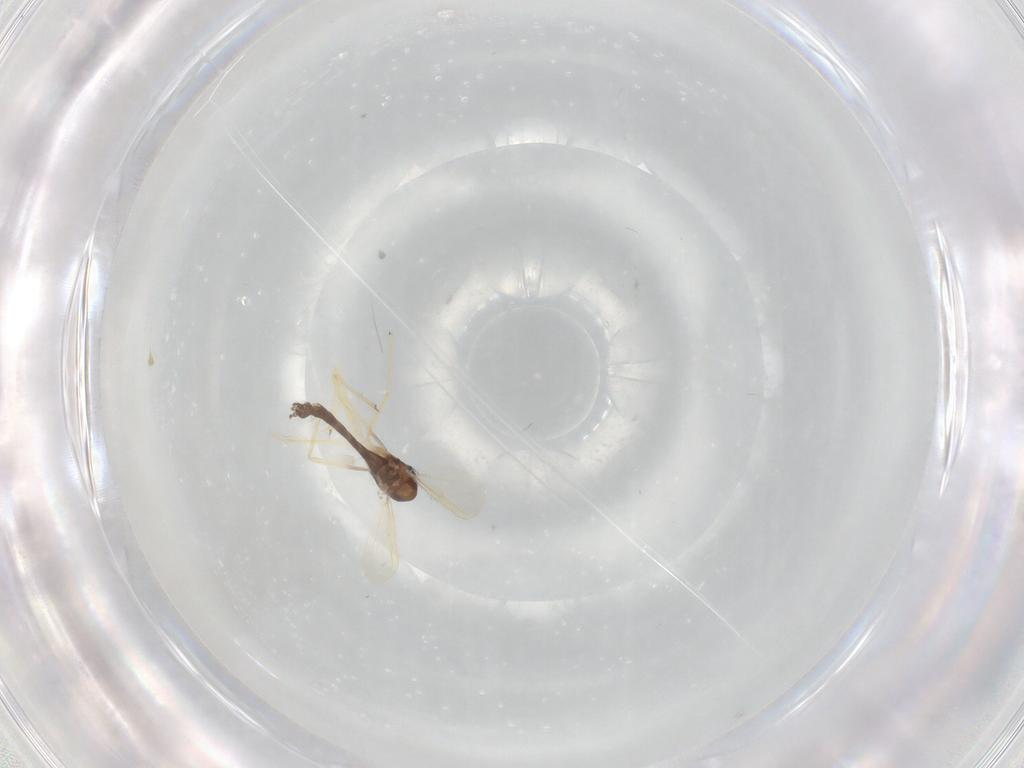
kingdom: Animalia
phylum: Arthropoda
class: Insecta
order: Diptera
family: Chironomidae
